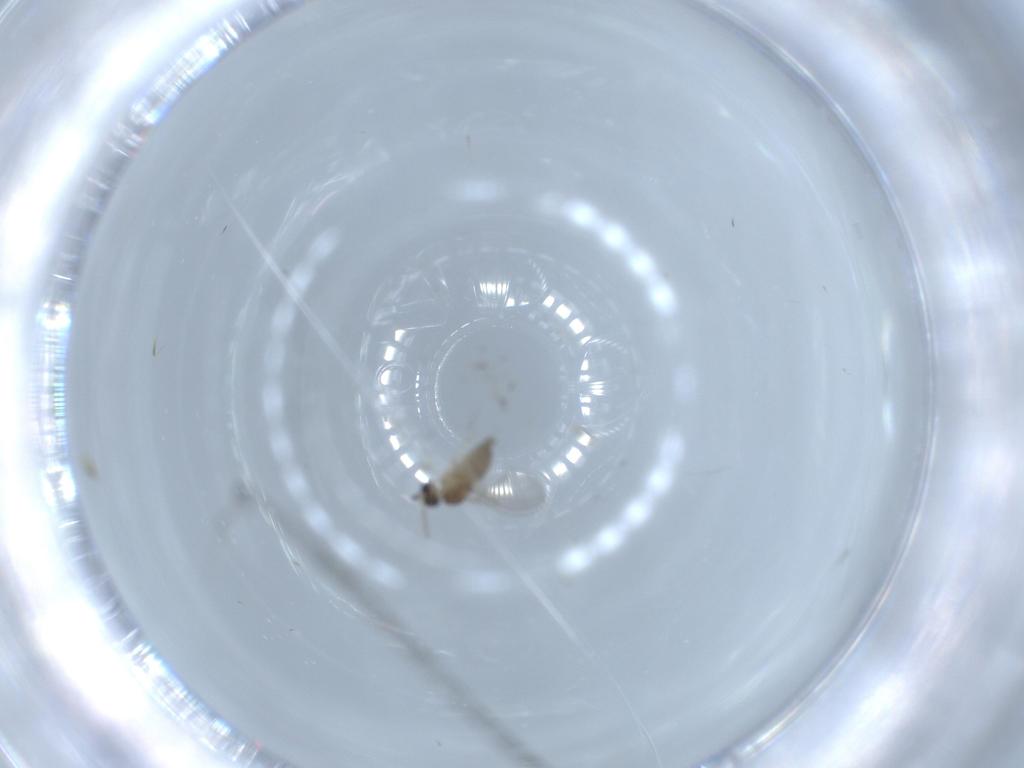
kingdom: Animalia
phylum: Arthropoda
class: Insecta
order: Diptera
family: Cecidomyiidae
